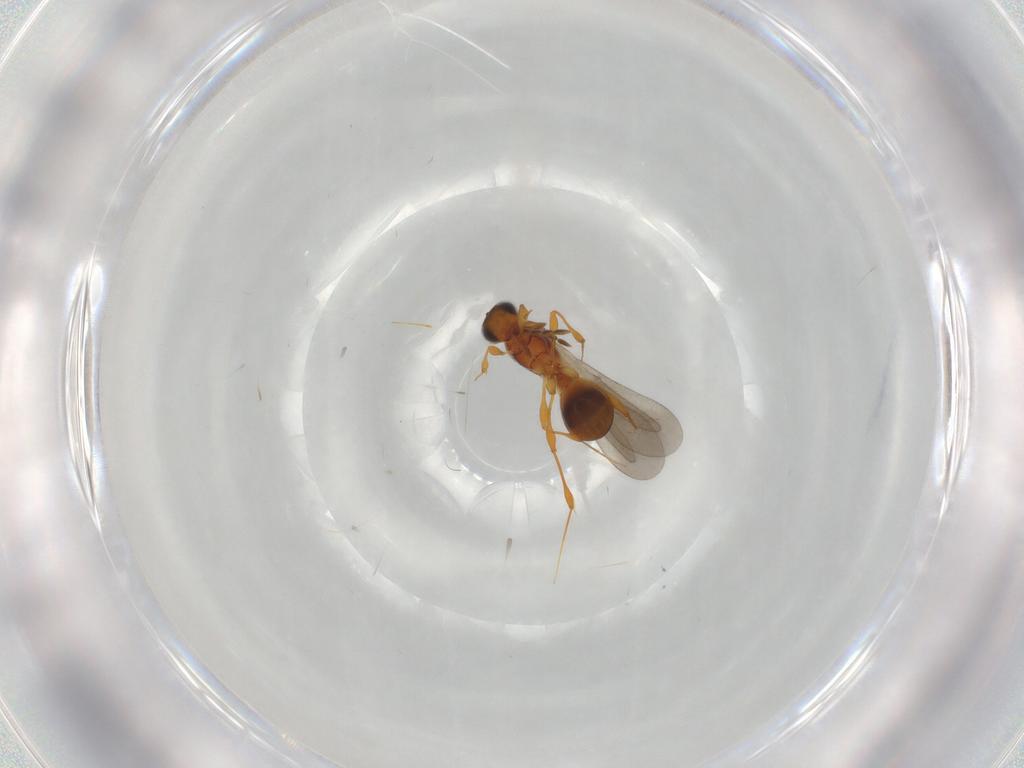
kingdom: Animalia
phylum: Arthropoda
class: Insecta
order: Hymenoptera
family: Platygastridae
